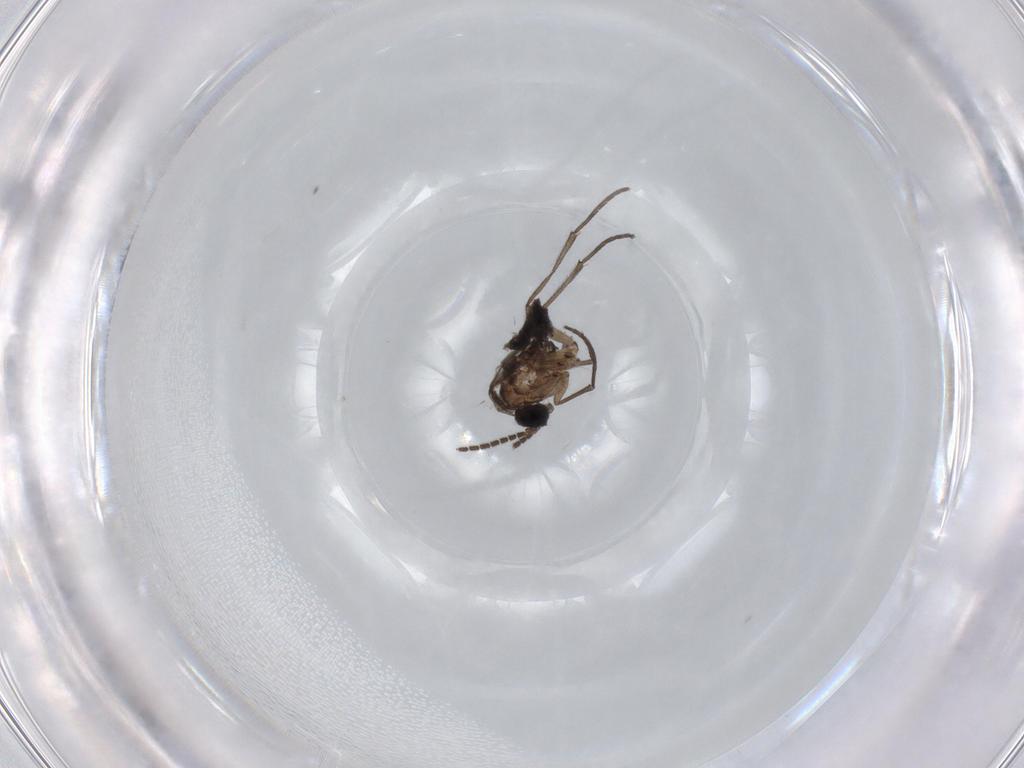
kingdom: Animalia
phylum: Arthropoda
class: Insecta
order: Diptera
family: Sciaridae
